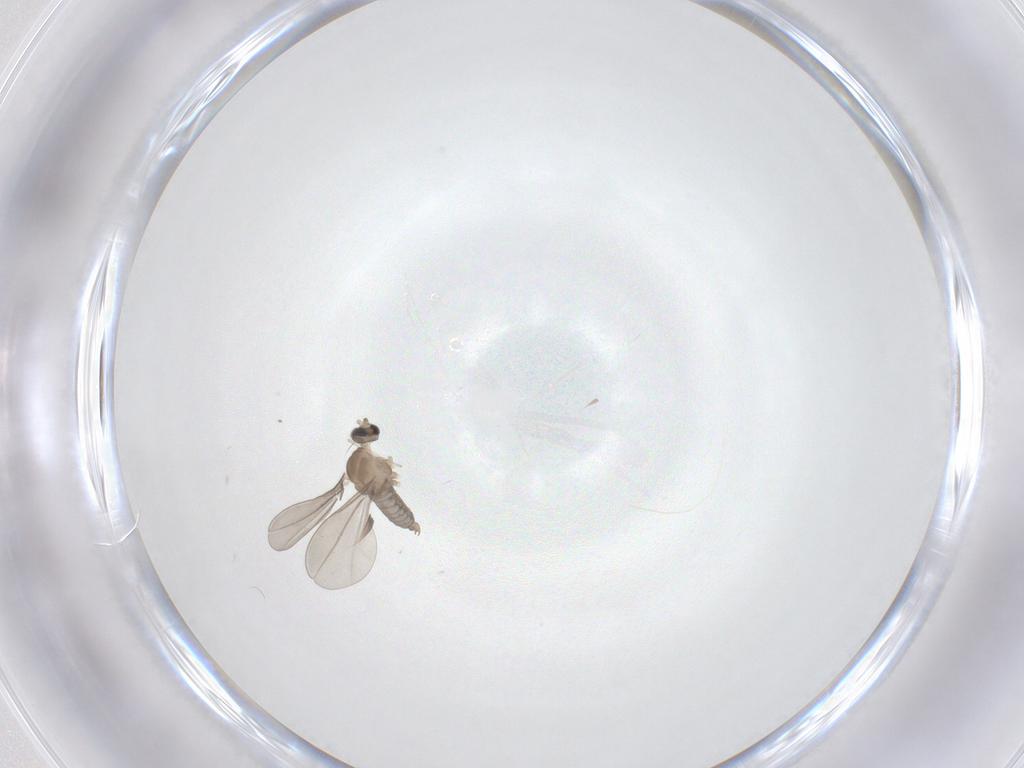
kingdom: Animalia
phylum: Arthropoda
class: Insecta
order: Diptera
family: Cecidomyiidae
